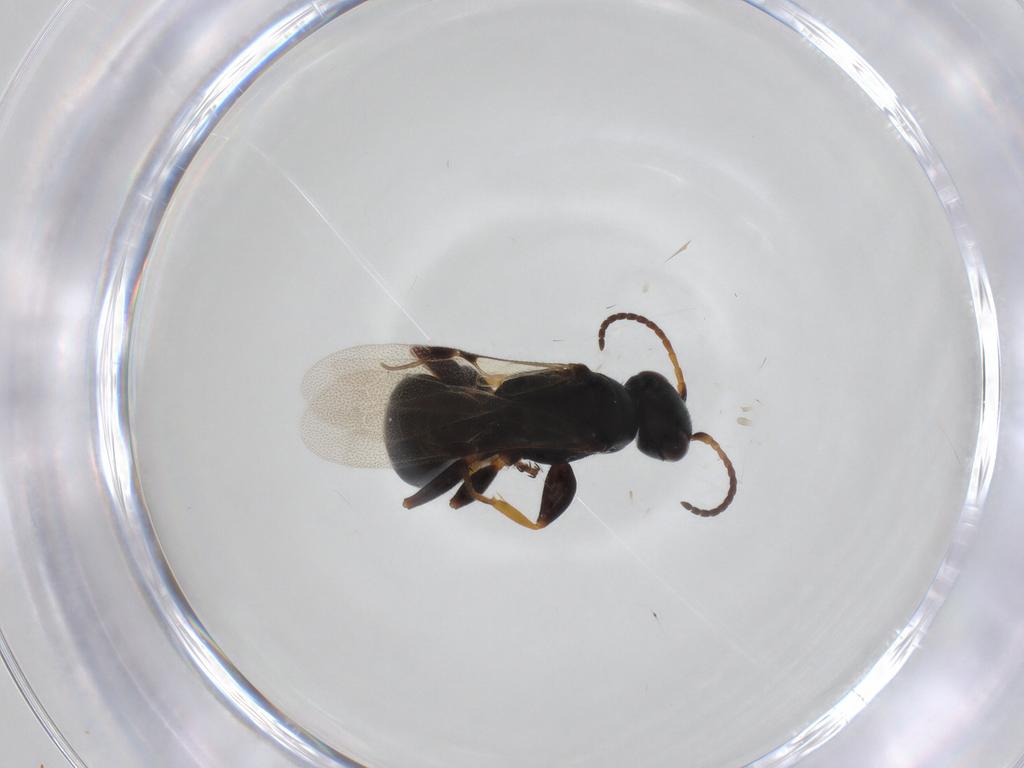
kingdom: Animalia
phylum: Arthropoda
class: Insecta
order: Hymenoptera
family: Bethylidae
